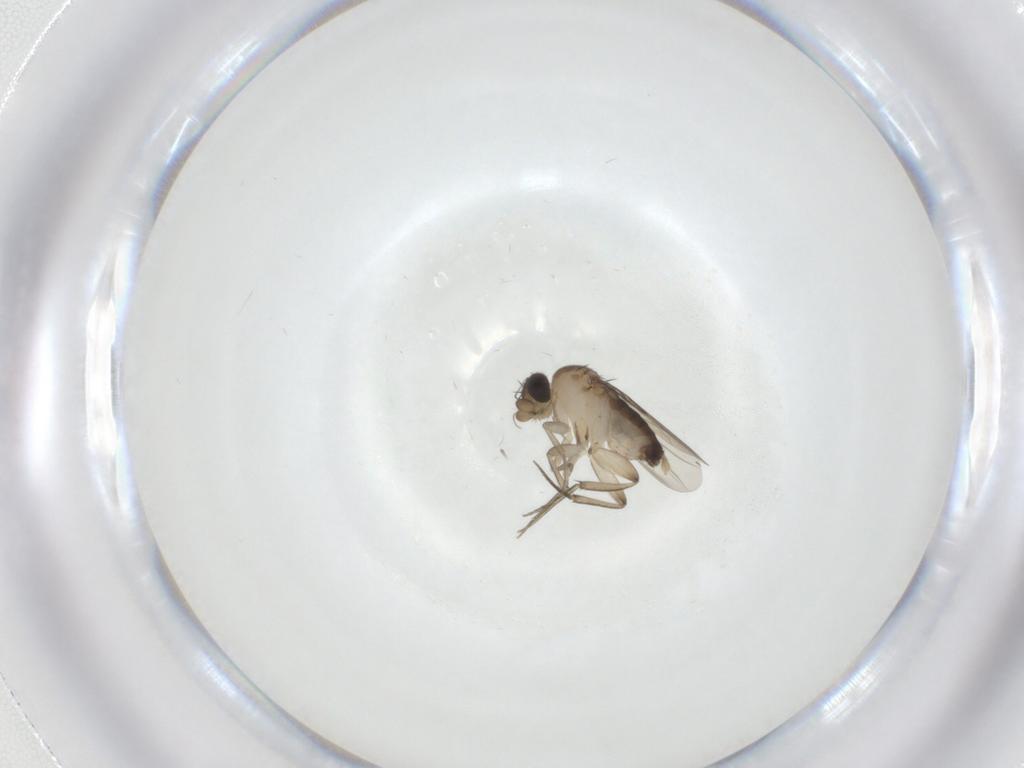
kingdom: Animalia
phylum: Arthropoda
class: Insecta
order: Diptera
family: Phoridae
